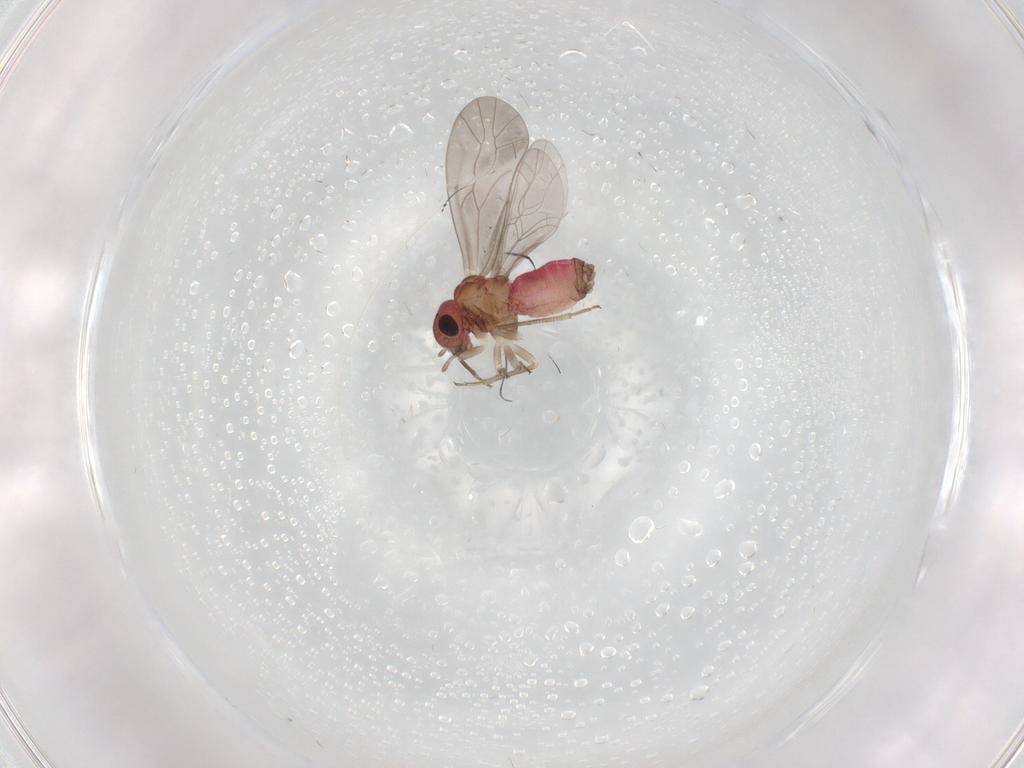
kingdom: Animalia
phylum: Arthropoda
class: Insecta
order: Psocodea
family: Lachesillidae
